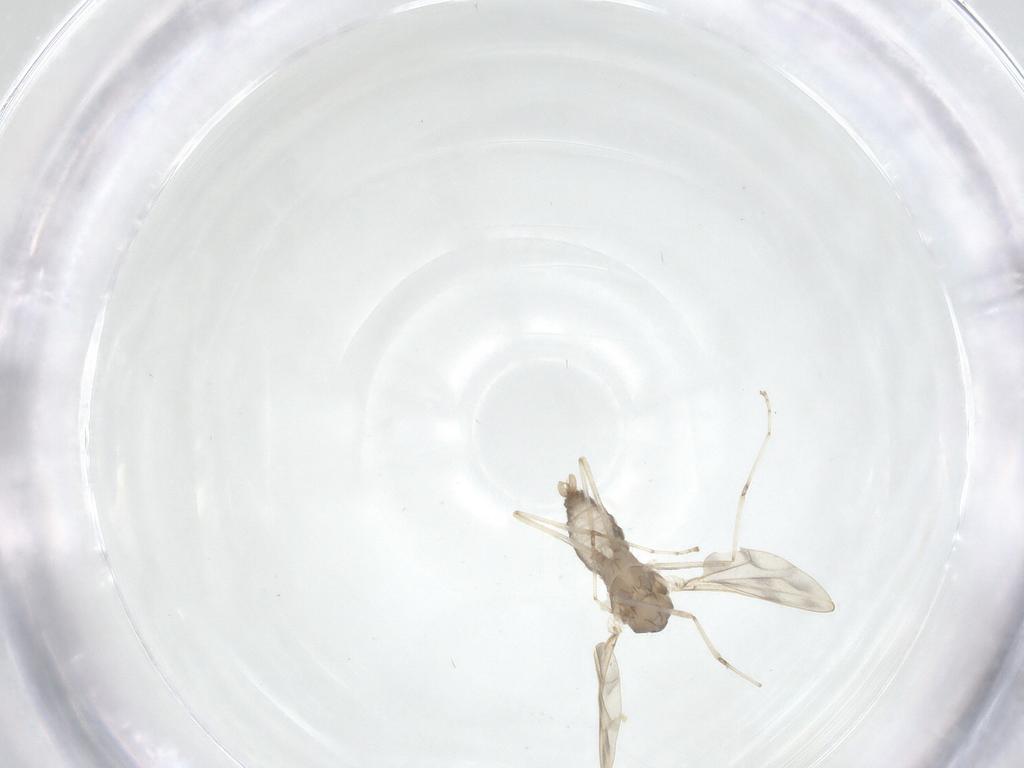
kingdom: Animalia
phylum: Arthropoda
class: Insecta
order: Diptera
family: Cecidomyiidae
